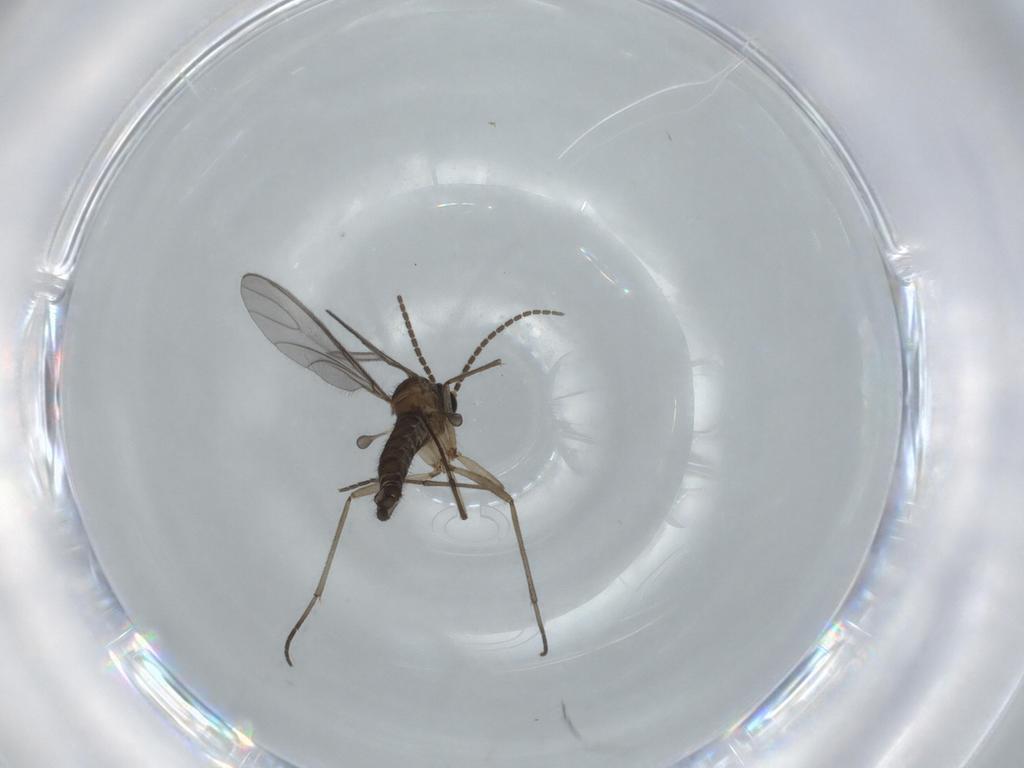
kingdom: Animalia
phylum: Arthropoda
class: Insecta
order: Diptera
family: Sciaridae
